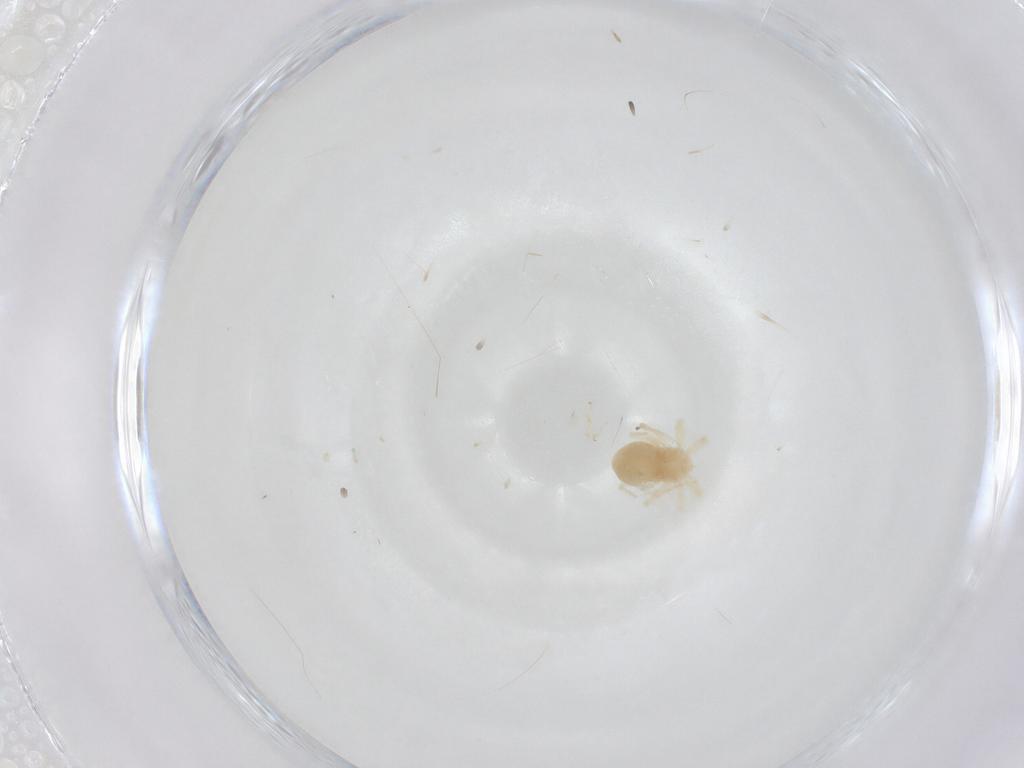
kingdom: Animalia
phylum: Arthropoda
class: Arachnida
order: Trombidiformes
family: Anystidae
